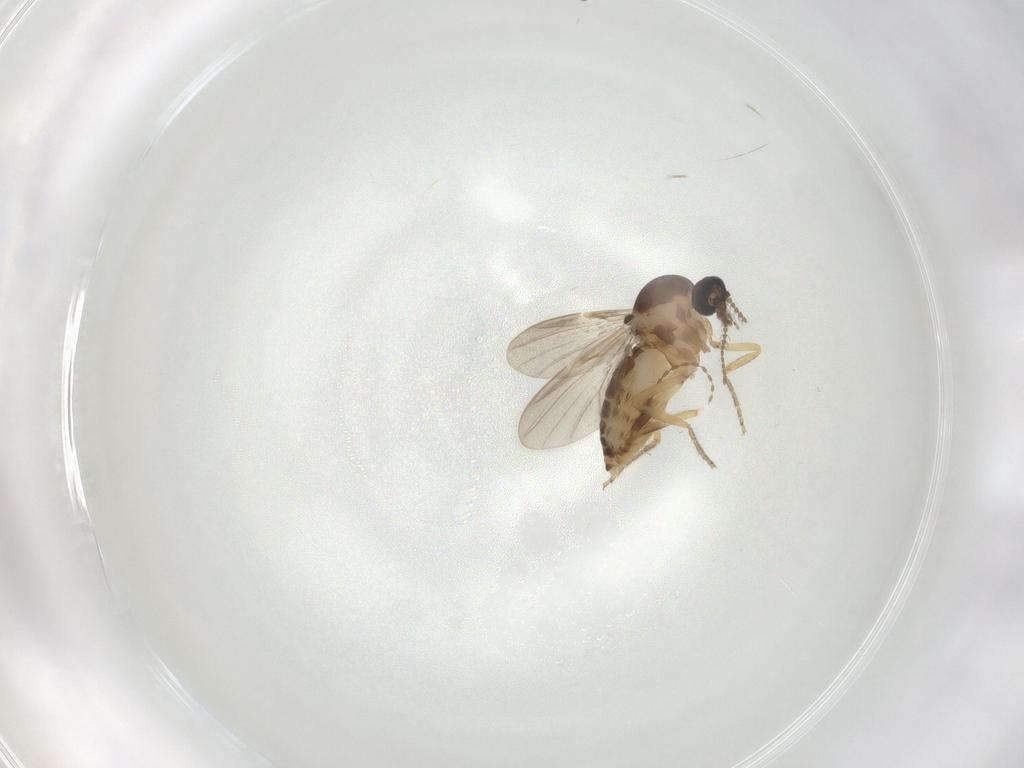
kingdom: Animalia
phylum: Arthropoda
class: Insecta
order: Diptera
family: Ceratopogonidae
